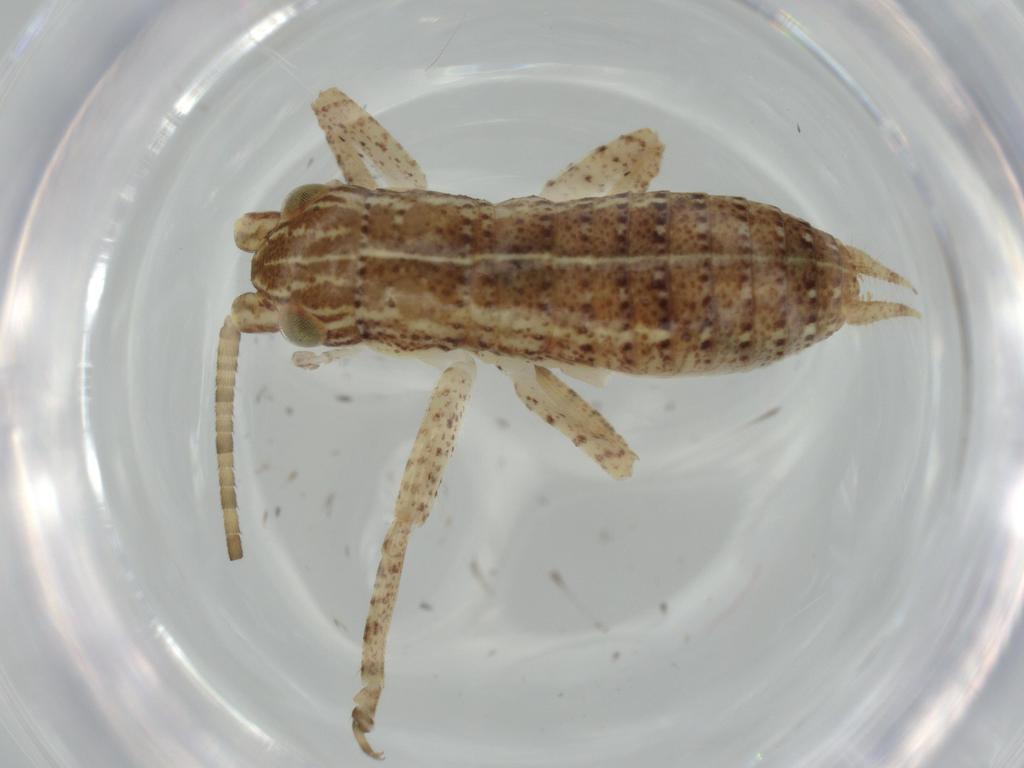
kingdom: Animalia
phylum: Arthropoda
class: Insecta
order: Orthoptera
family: Gryllidae
